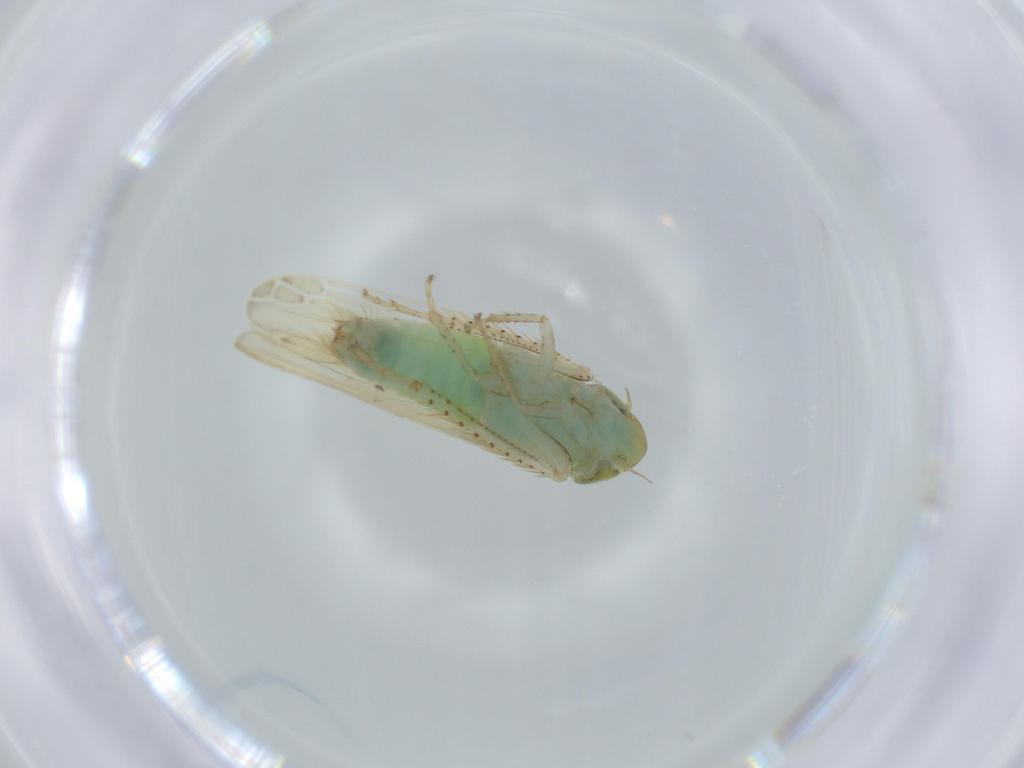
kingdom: Animalia
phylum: Arthropoda
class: Insecta
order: Hemiptera
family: Cicadellidae
